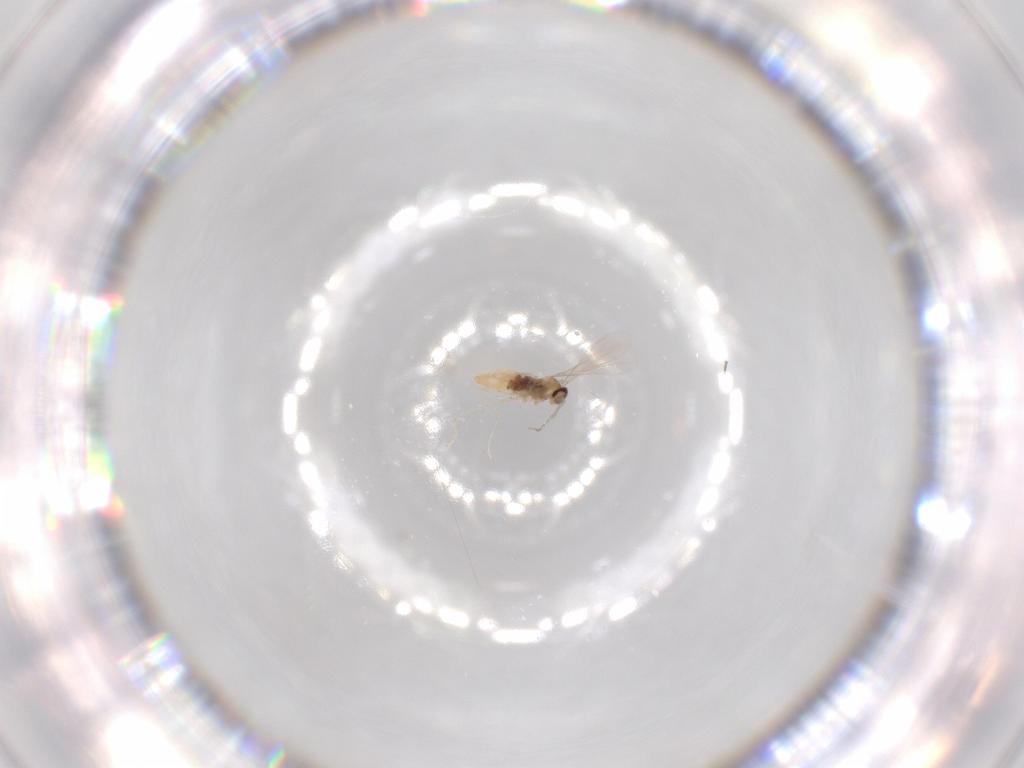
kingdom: Animalia
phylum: Arthropoda
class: Insecta
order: Diptera
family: Cecidomyiidae
